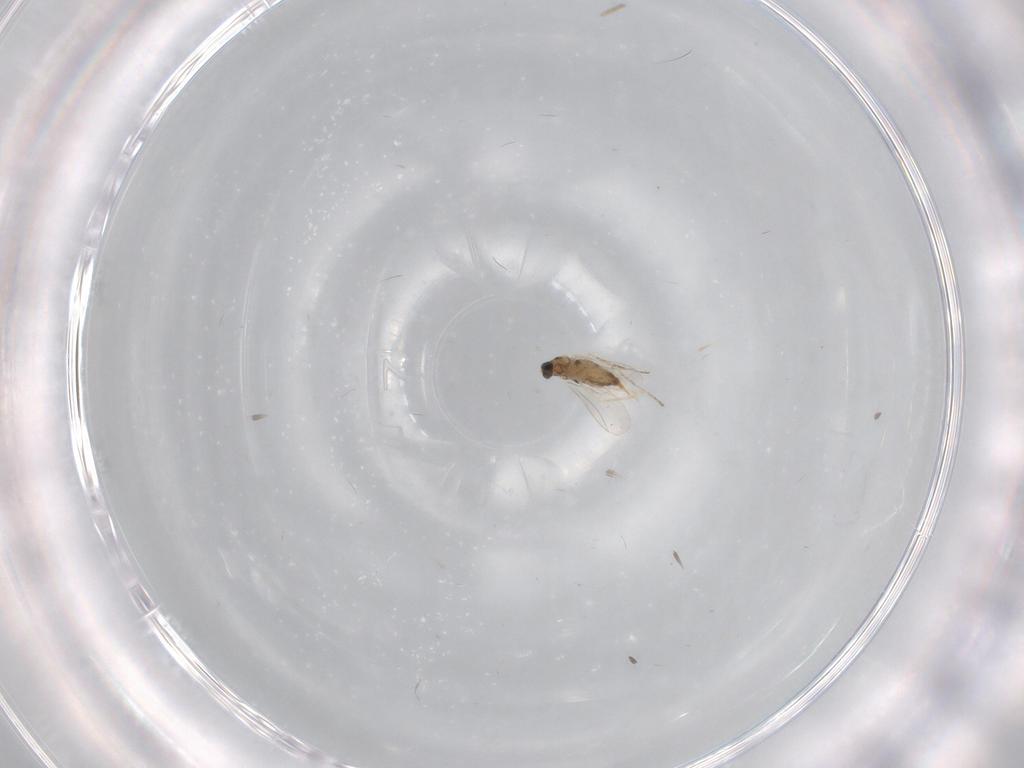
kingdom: Animalia
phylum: Arthropoda
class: Insecta
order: Diptera
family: Cecidomyiidae
